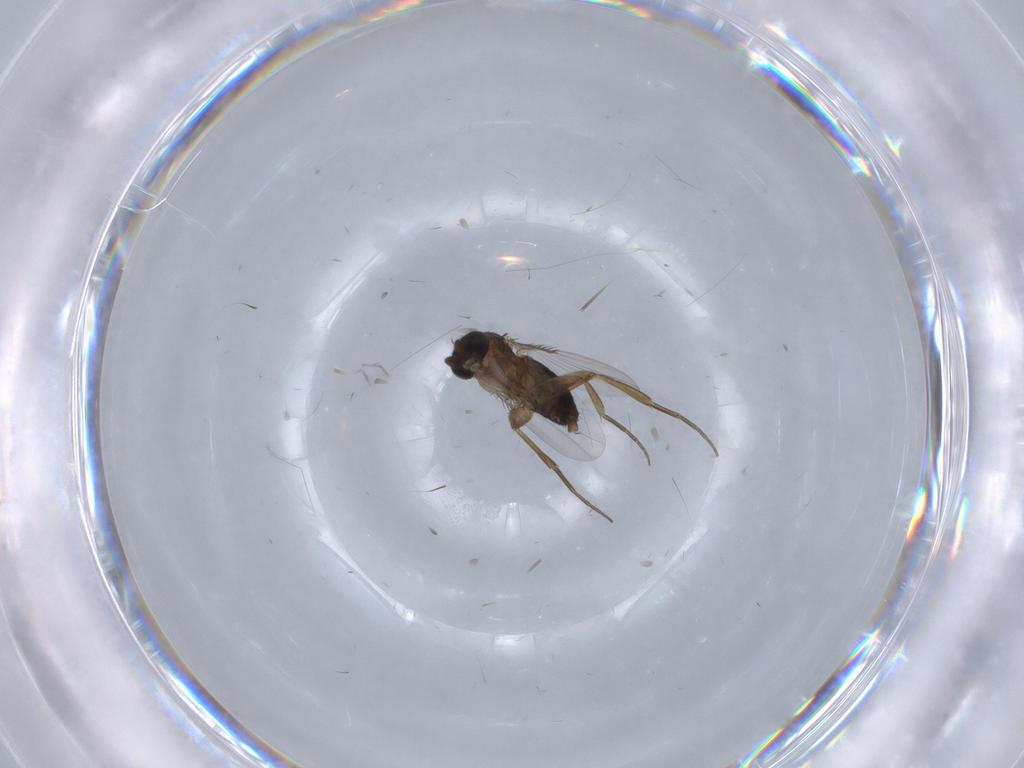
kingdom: Animalia
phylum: Arthropoda
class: Insecta
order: Diptera
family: Phoridae
